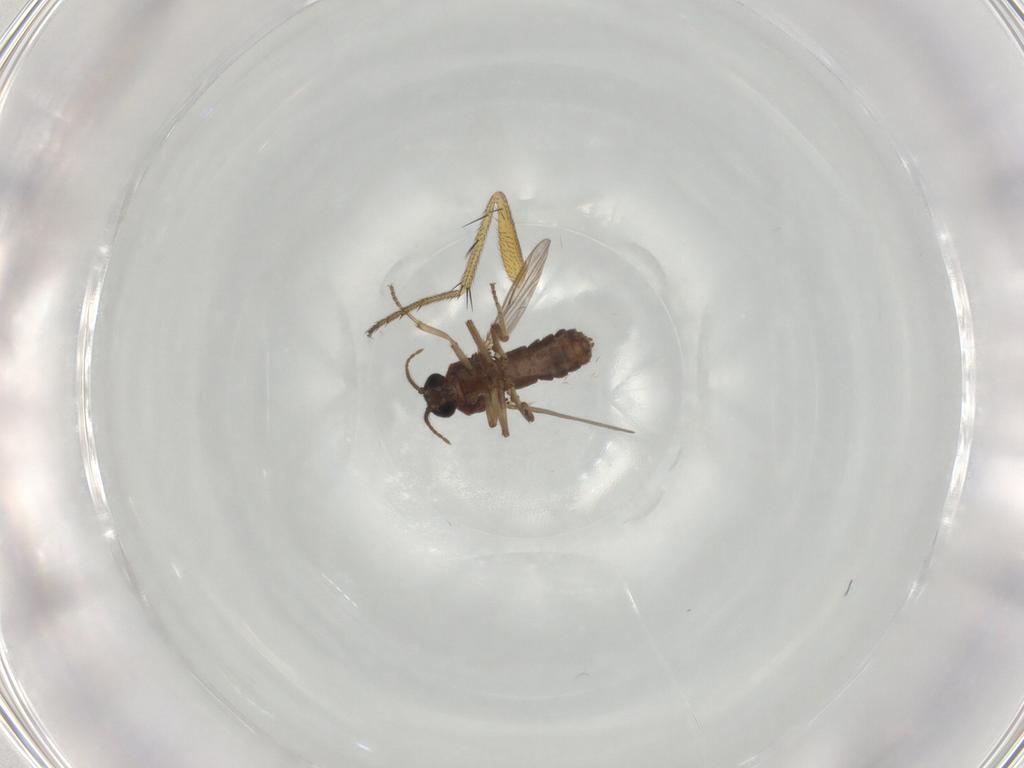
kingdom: Animalia
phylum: Arthropoda
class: Insecta
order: Diptera
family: Ceratopogonidae
